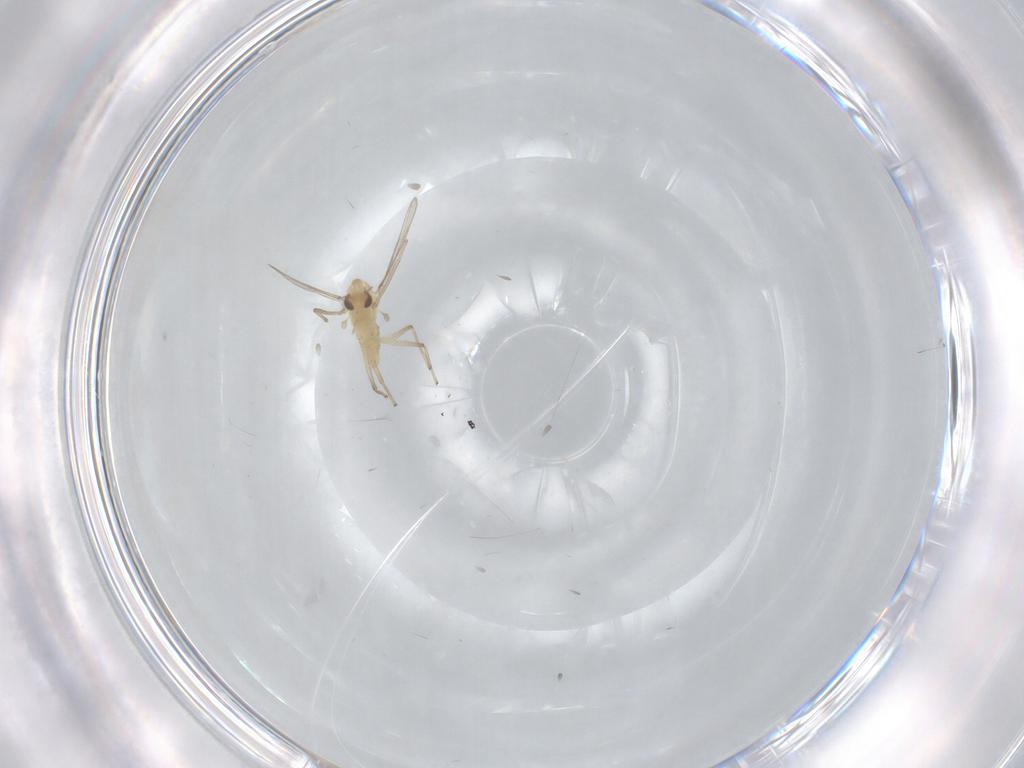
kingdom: Animalia
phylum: Arthropoda
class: Insecta
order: Diptera
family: Chironomidae
